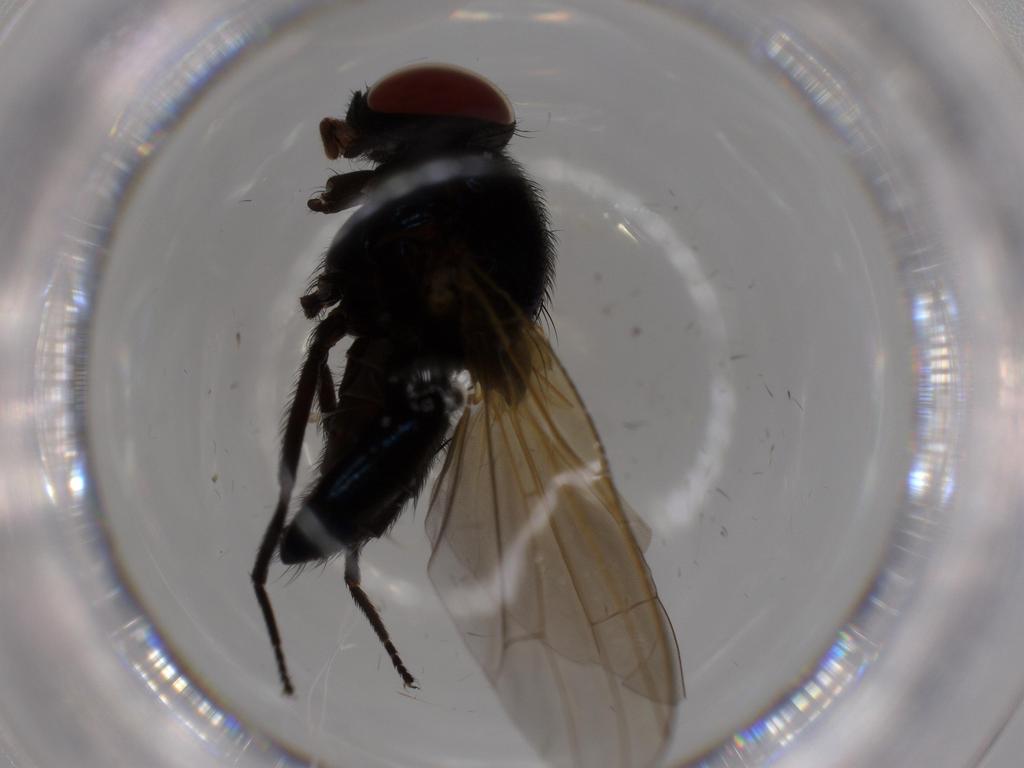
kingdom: Animalia
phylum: Arthropoda
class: Insecta
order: Diptera
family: Lonchaeidae
